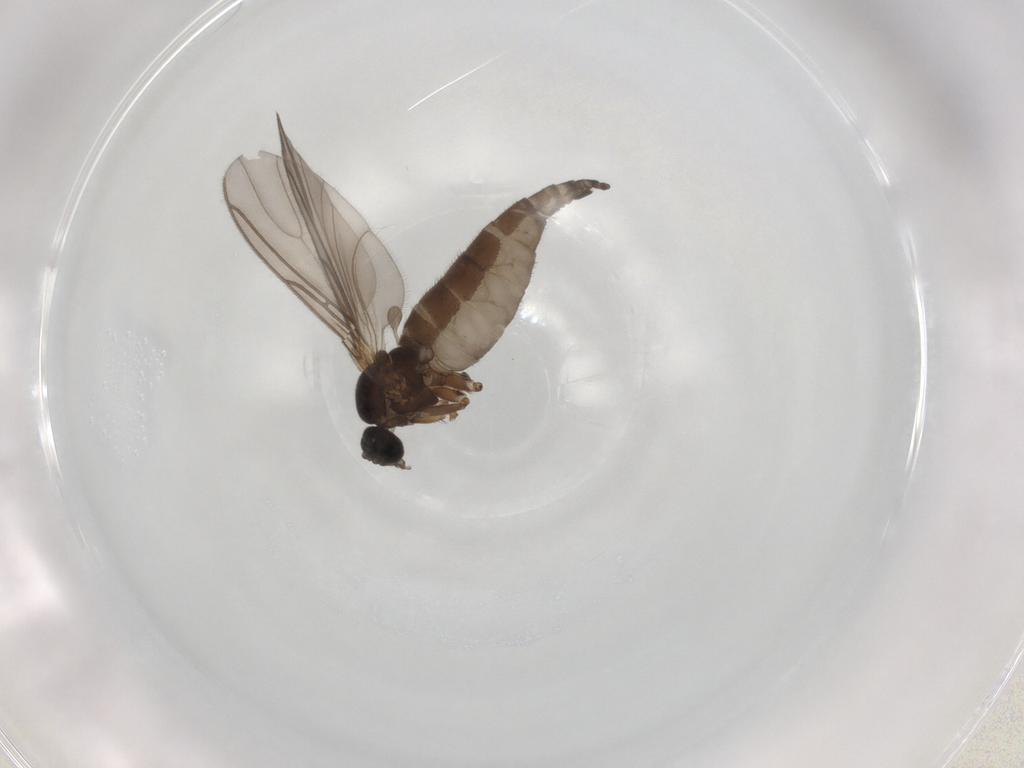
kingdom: Animalia
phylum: Arthropoda
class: Insecta
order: Diptera
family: Sciaridae
